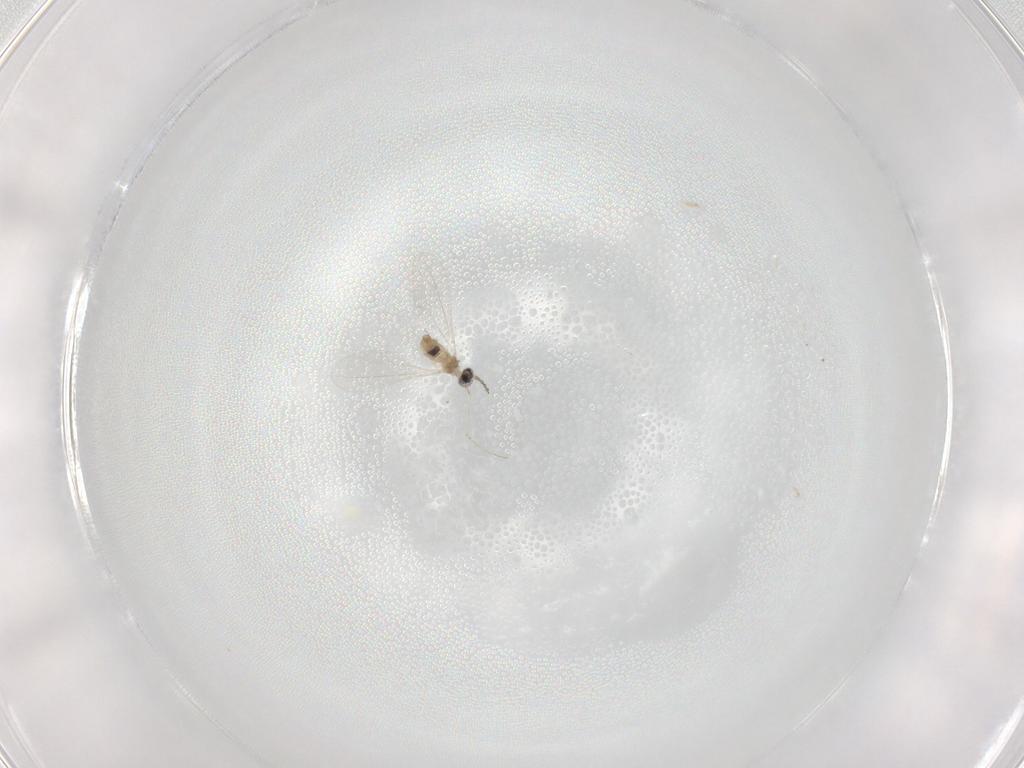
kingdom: Animalia
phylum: Arthropoda
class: Insecta
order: Diptera
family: Cecidomyiidae
